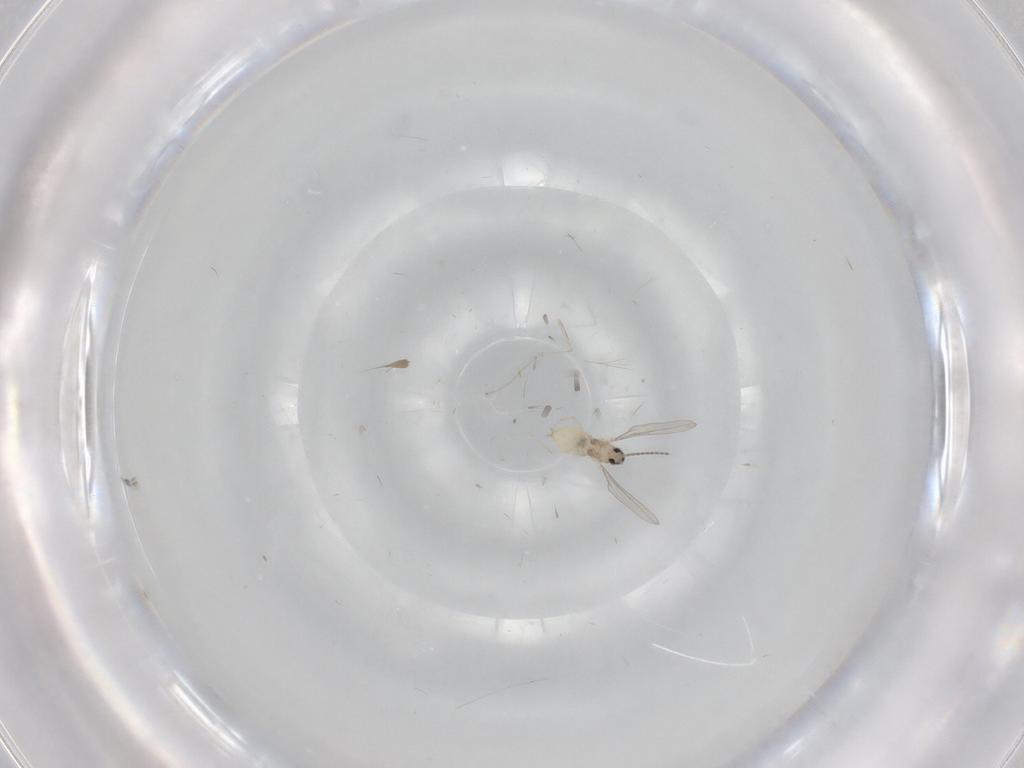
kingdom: Animalia
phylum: Arthropoda
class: Insecta
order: Diptera
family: Cecidomyiidae
